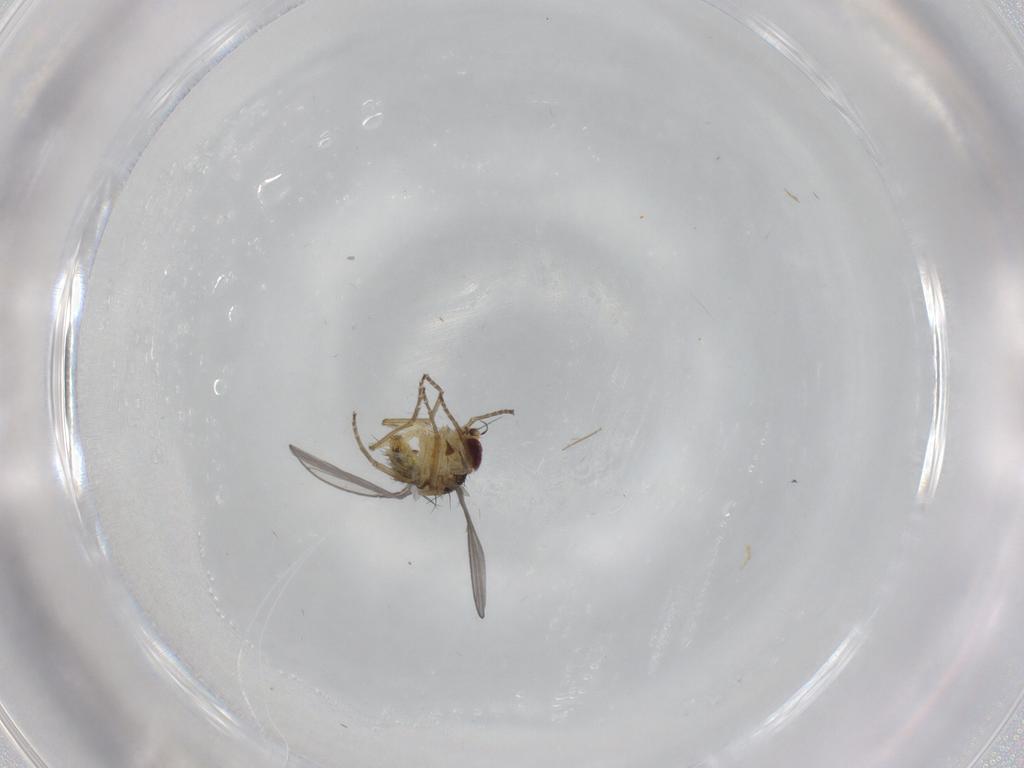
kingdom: Animalia
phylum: Arthropoda
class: Insecta
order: Diptera
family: Agromyzidae
